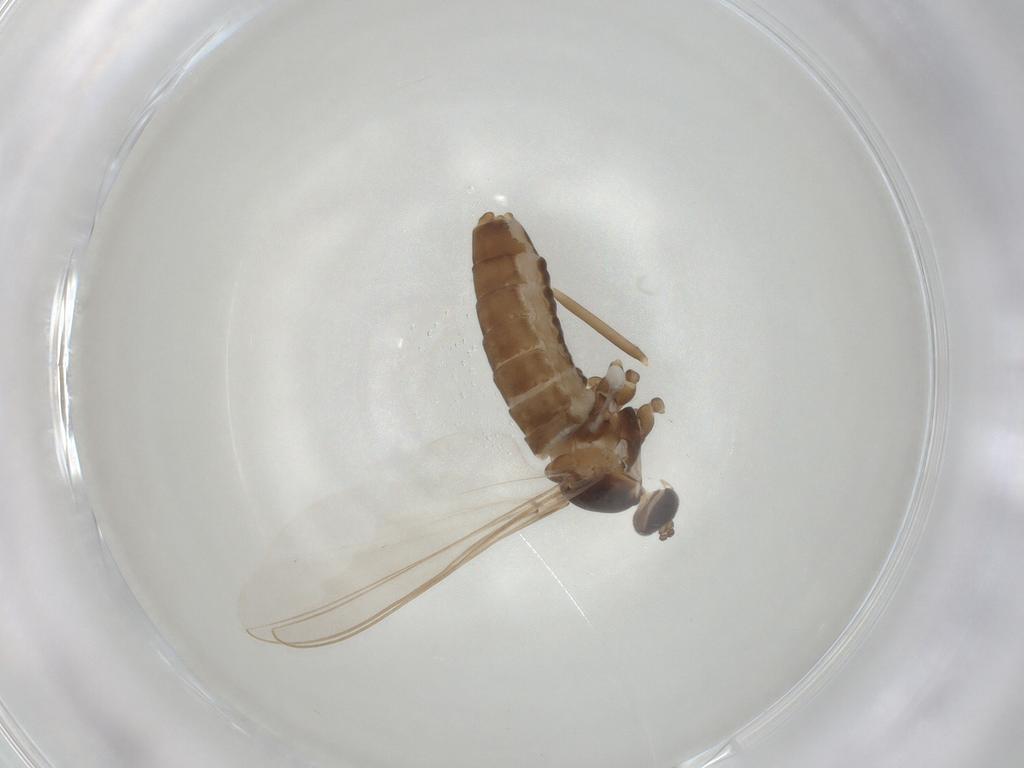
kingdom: Animalia
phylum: Arthropoda
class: Insecta
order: Diptera
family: Cecidomyiidae
